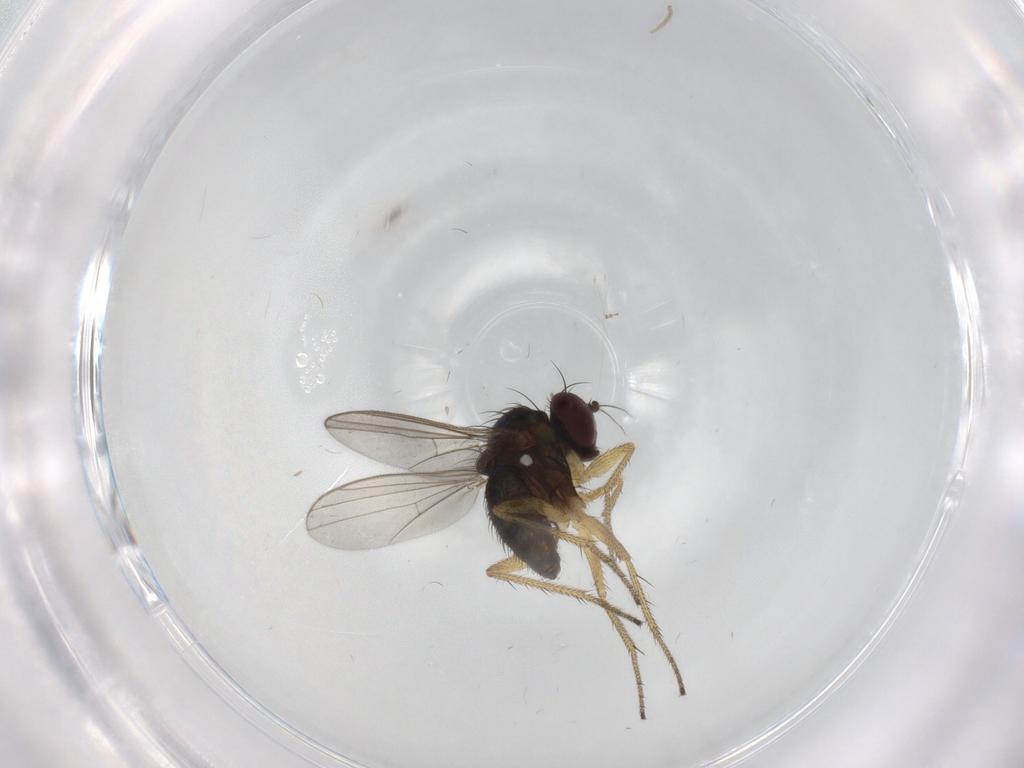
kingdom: Animalia
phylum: Arthropoda
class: Insecta
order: Diptera
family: Chironomidae
